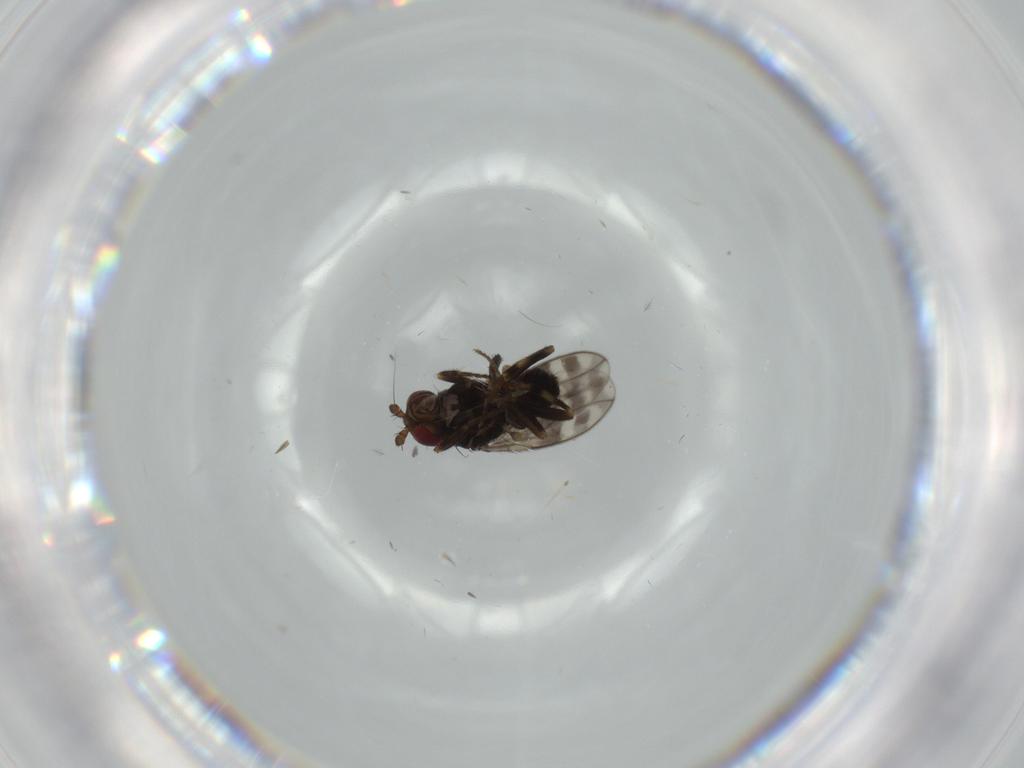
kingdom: Animalia
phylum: Arthropoda
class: Insecta
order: Diptera
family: Sphaeroceridae
